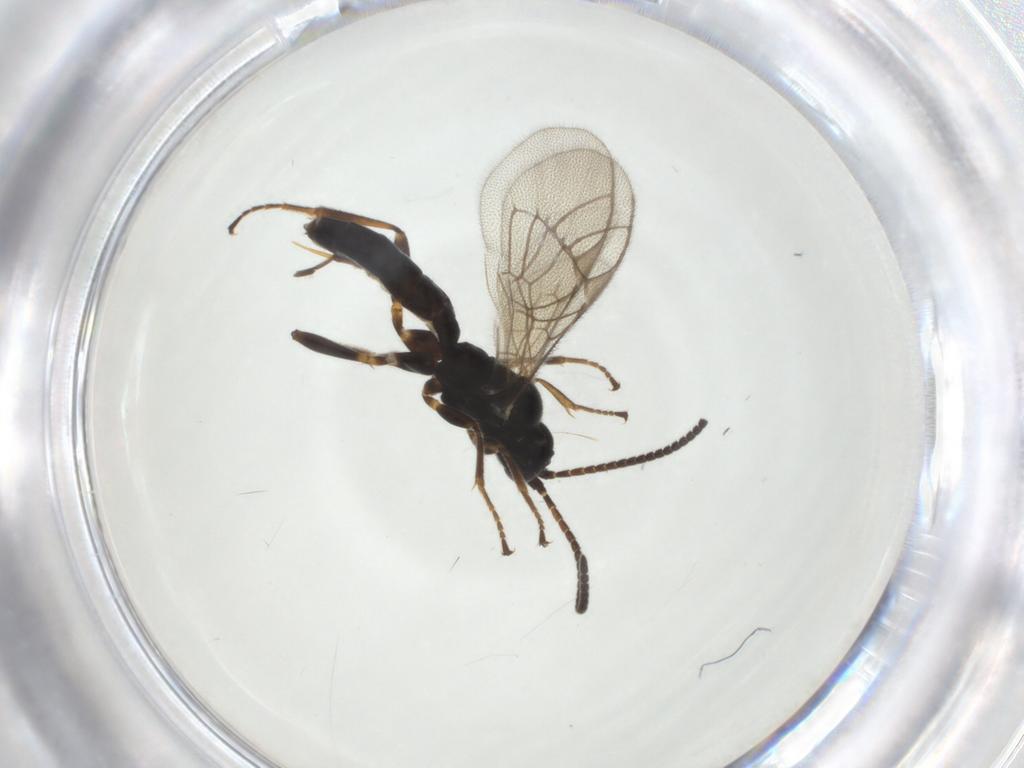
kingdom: Animalia
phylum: Arthropoda
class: Insecta
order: Hymenoptera
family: Ichneumonidae
